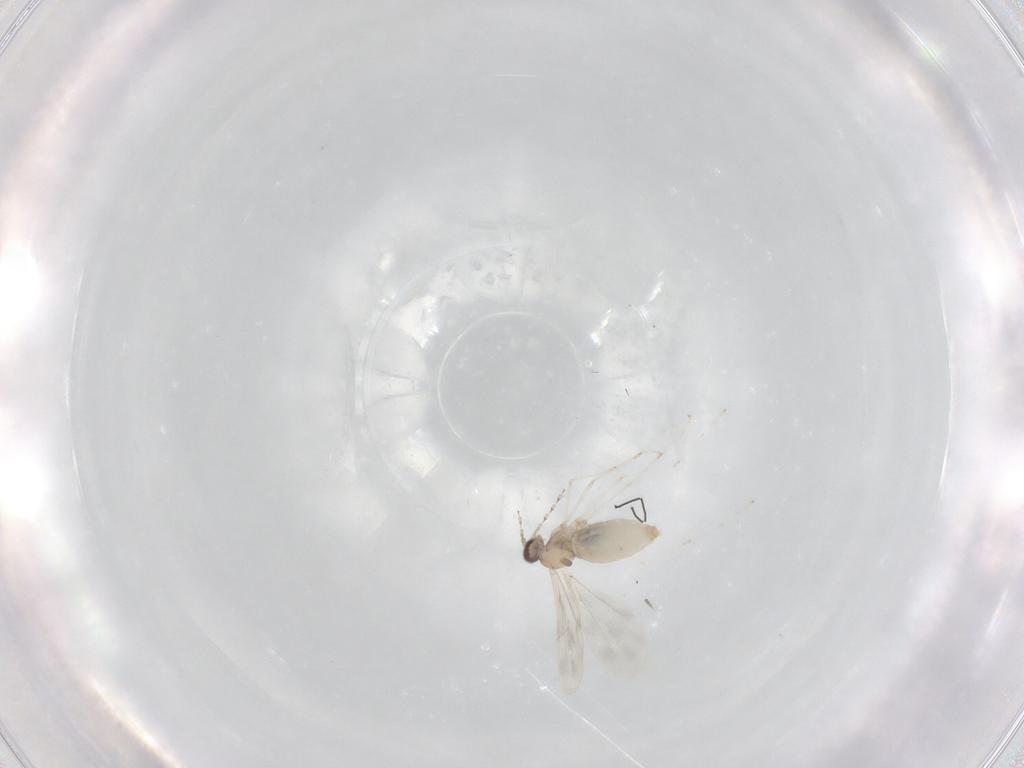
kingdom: Animalia
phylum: Arthropoda
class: Insecta
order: Diptera
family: Cecidomyiidae
